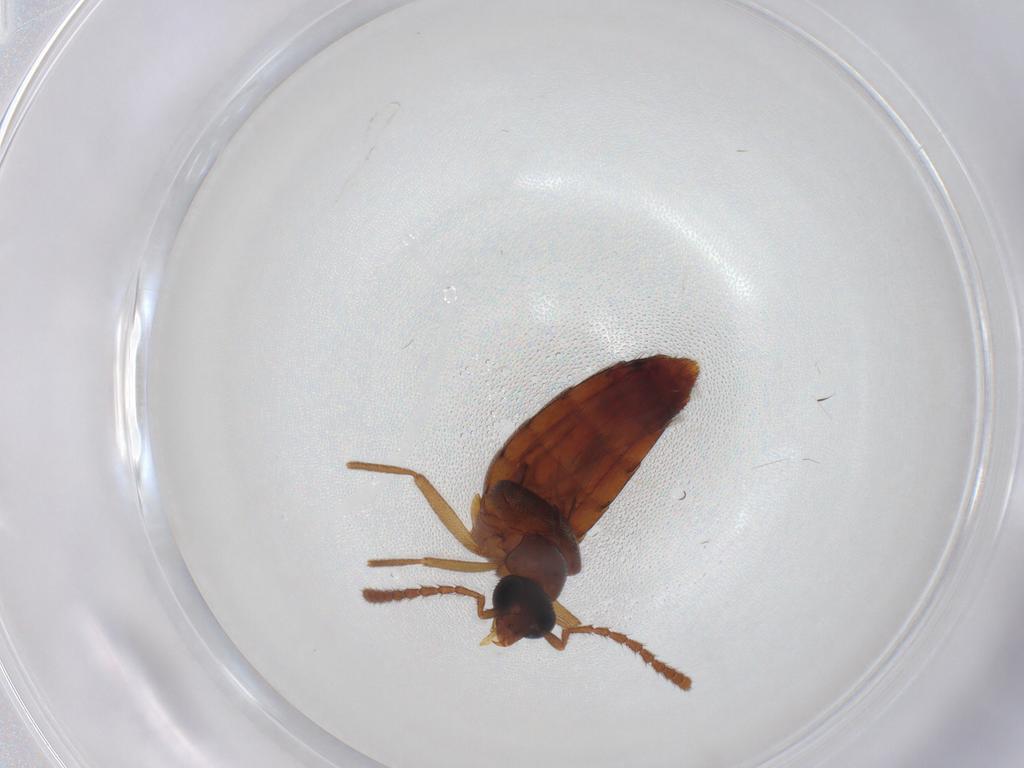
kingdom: Animalia
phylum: Arthropoda
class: Insecta
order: Coleoptera
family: Staphylinidae
